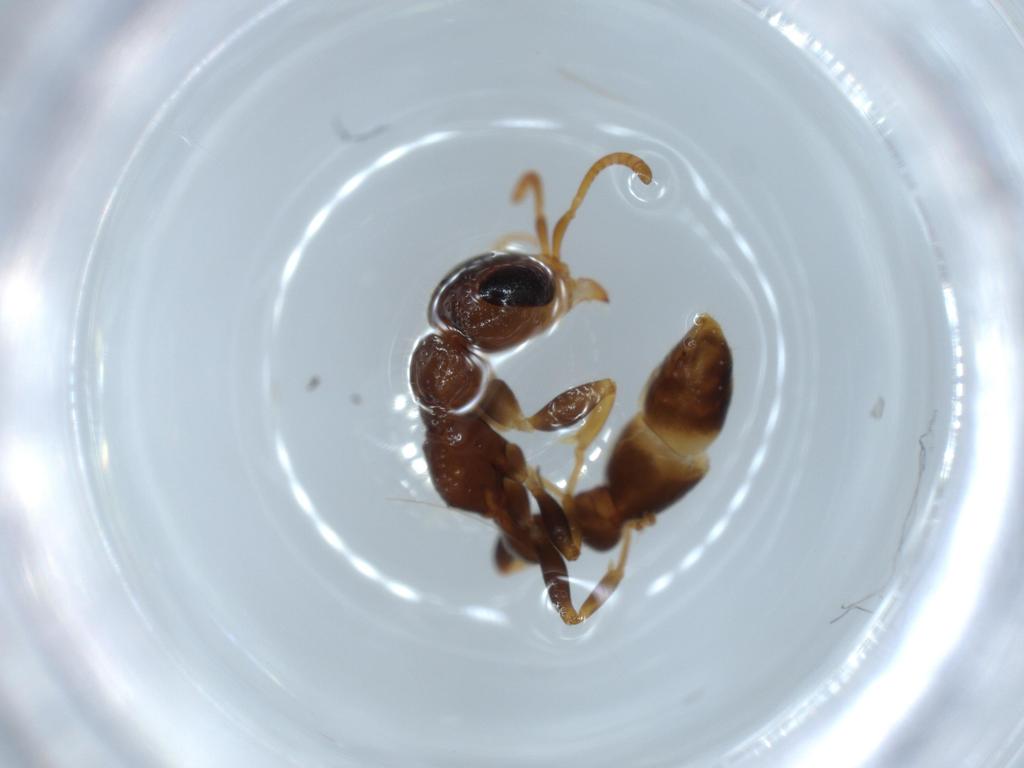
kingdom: Animalia
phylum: Arthropoda
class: Insecta
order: Hymenoptera
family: Formicidae
